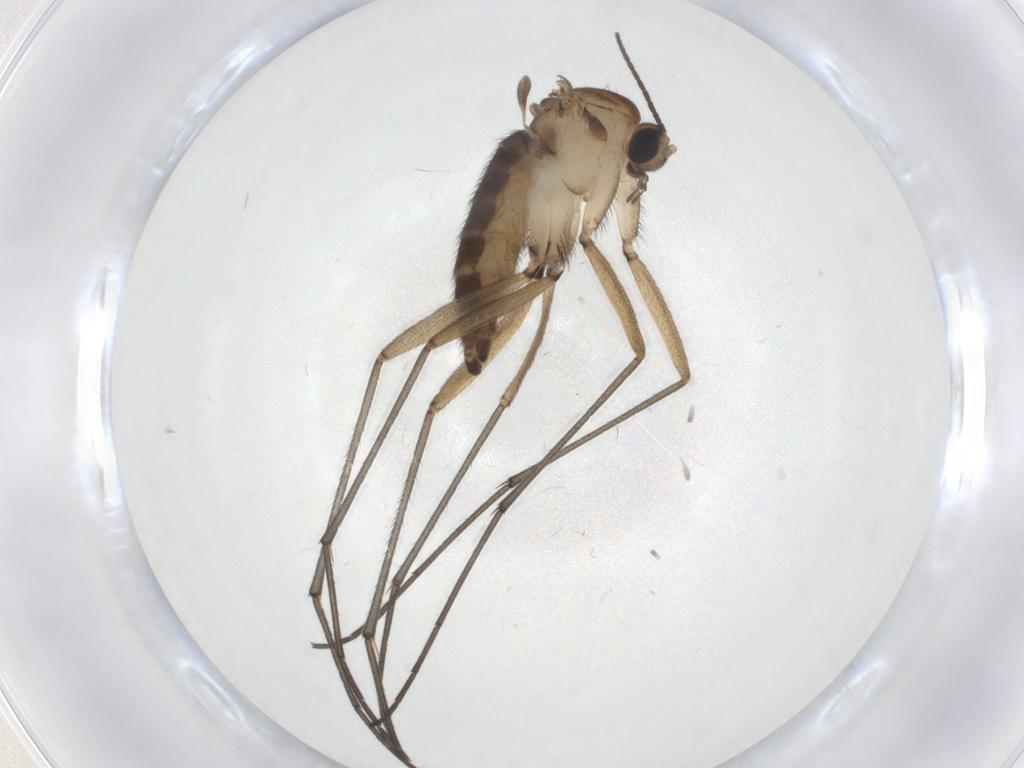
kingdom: Animalia
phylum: Arthropoda
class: Insecta
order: Diptera
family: Sciaridae
